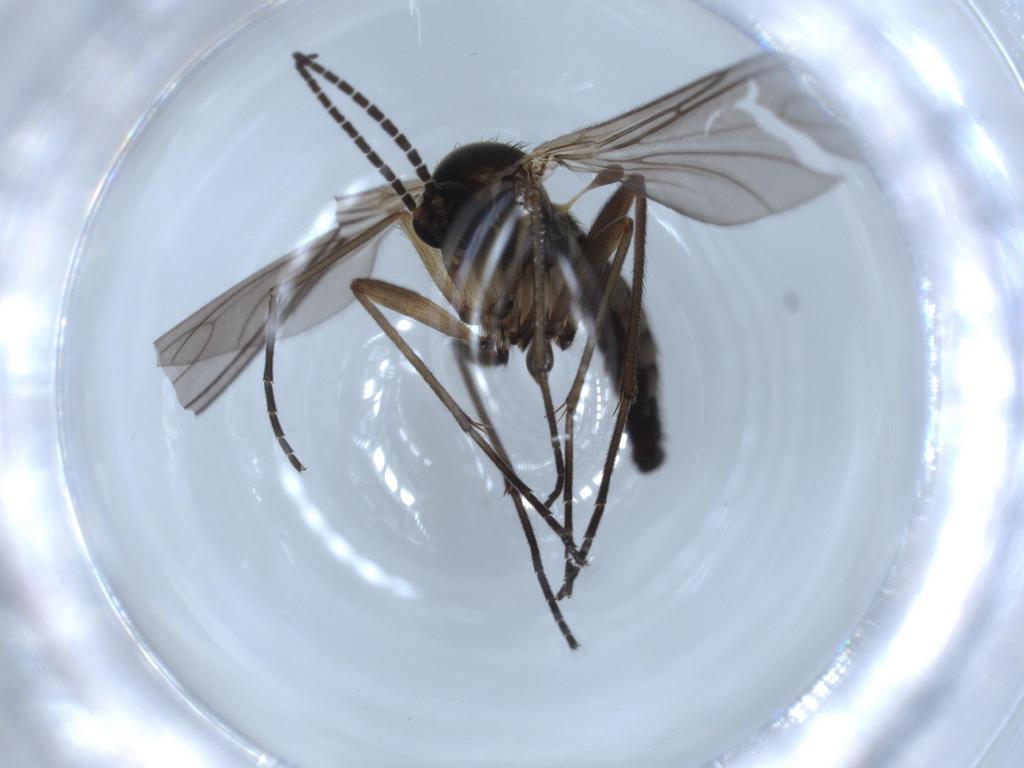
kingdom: Animalia
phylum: Arthropoda
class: Insecta
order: Diptera
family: Sciaridae
